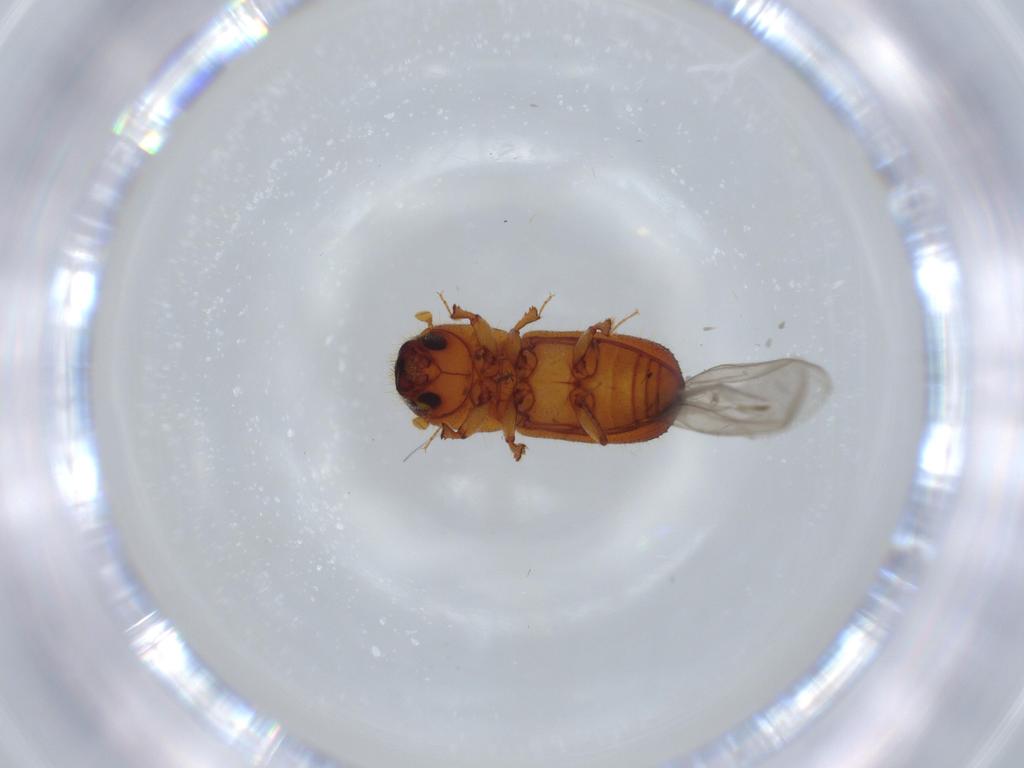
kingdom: Animalia
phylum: Arthropoda
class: Insecta
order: Coleoptera
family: Curculionidae
